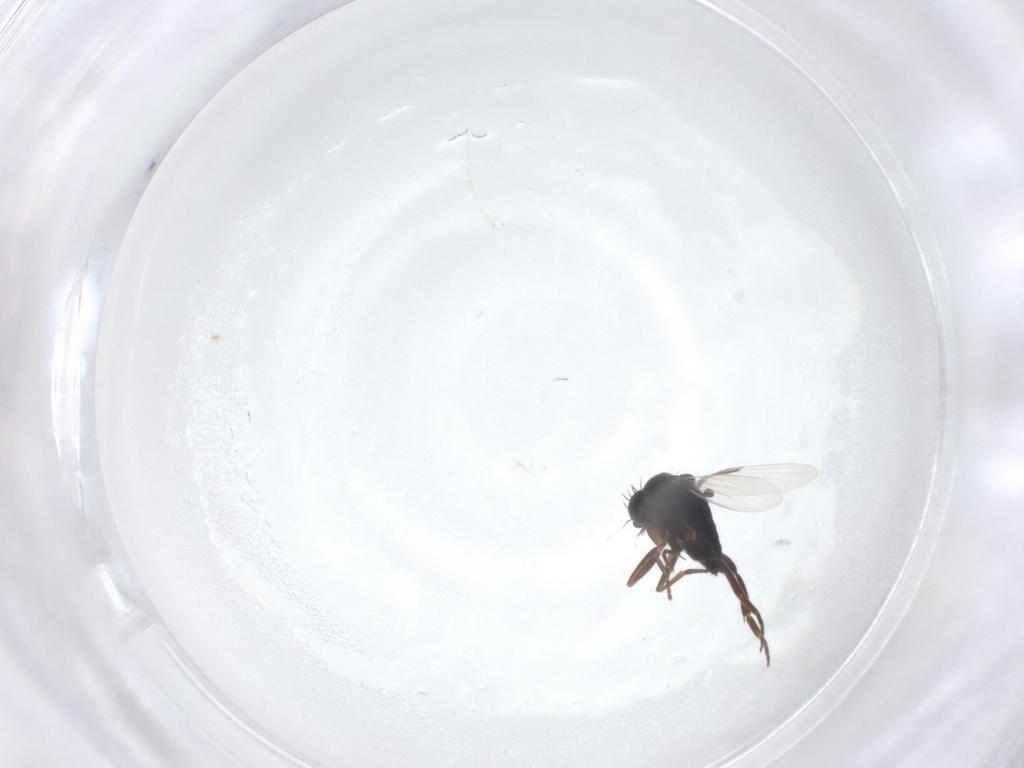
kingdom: Animalia
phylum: Arthropoda
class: Insecta
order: Diptera
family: Phoridae
